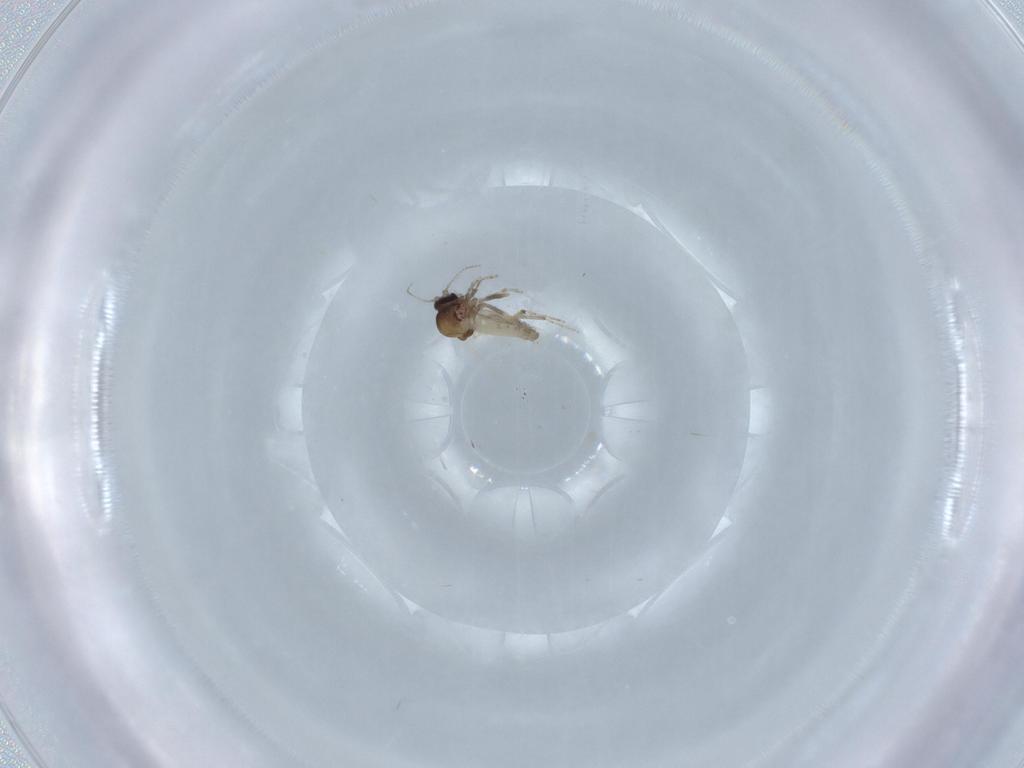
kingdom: Animalia
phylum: Arthropoda
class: Insecta
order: Diptera
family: Ceratopogonidae
